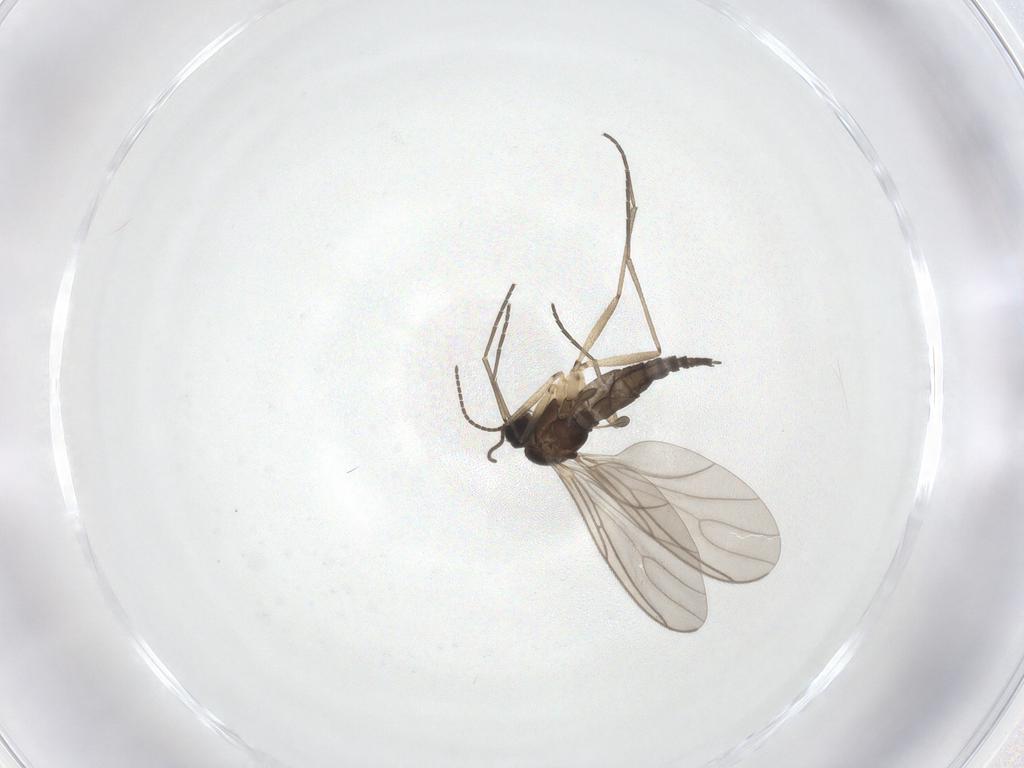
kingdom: Animalia
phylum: Arthropoda
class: Insecta
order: Diptera
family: Sciaridae
